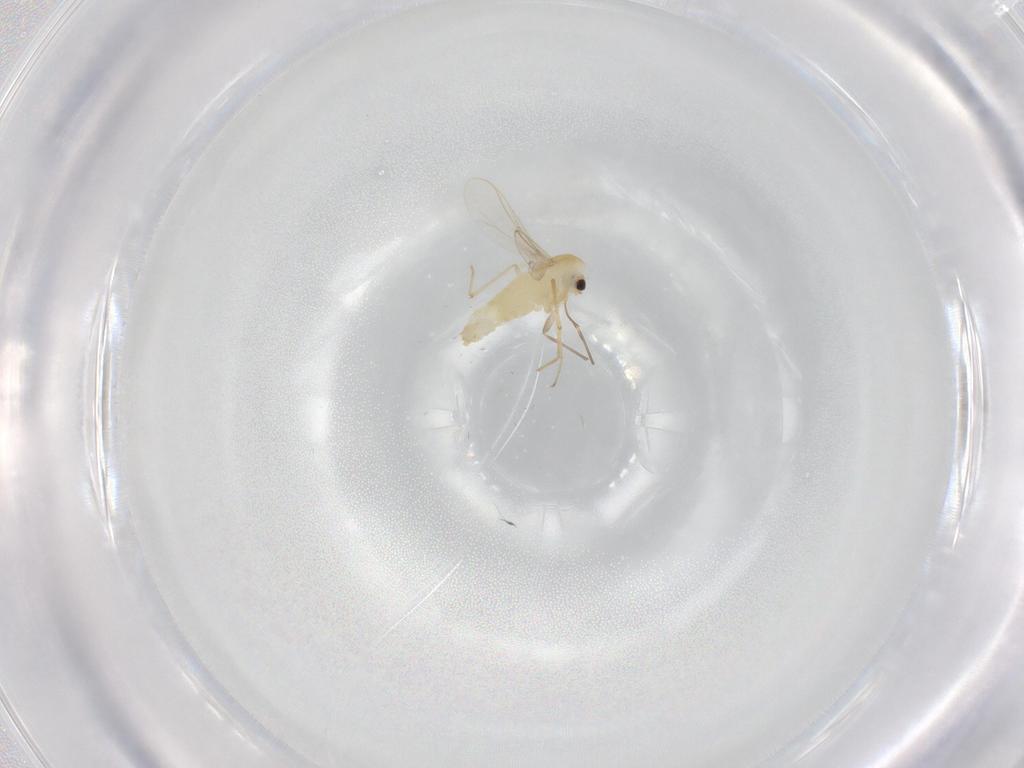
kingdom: Animalia
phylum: Arthropoda
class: Insecta
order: Diptera
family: Chironomidae
